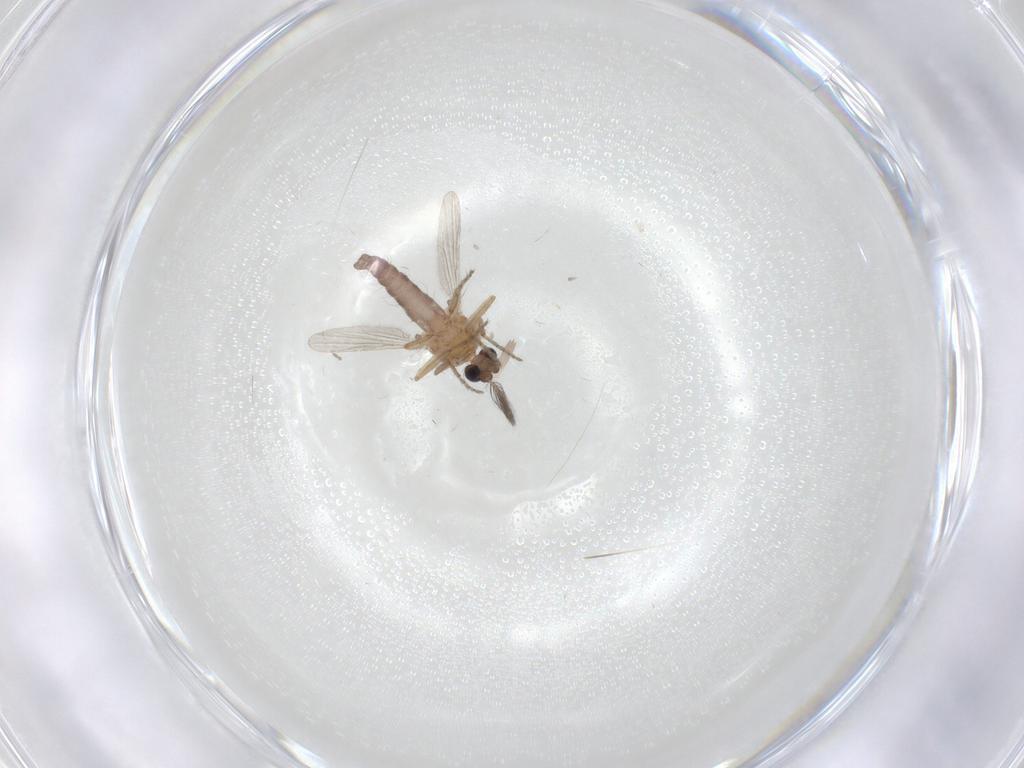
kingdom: Animalia
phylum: Arthropoda
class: Insecta
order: Diptera
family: Ceratopogonidae
